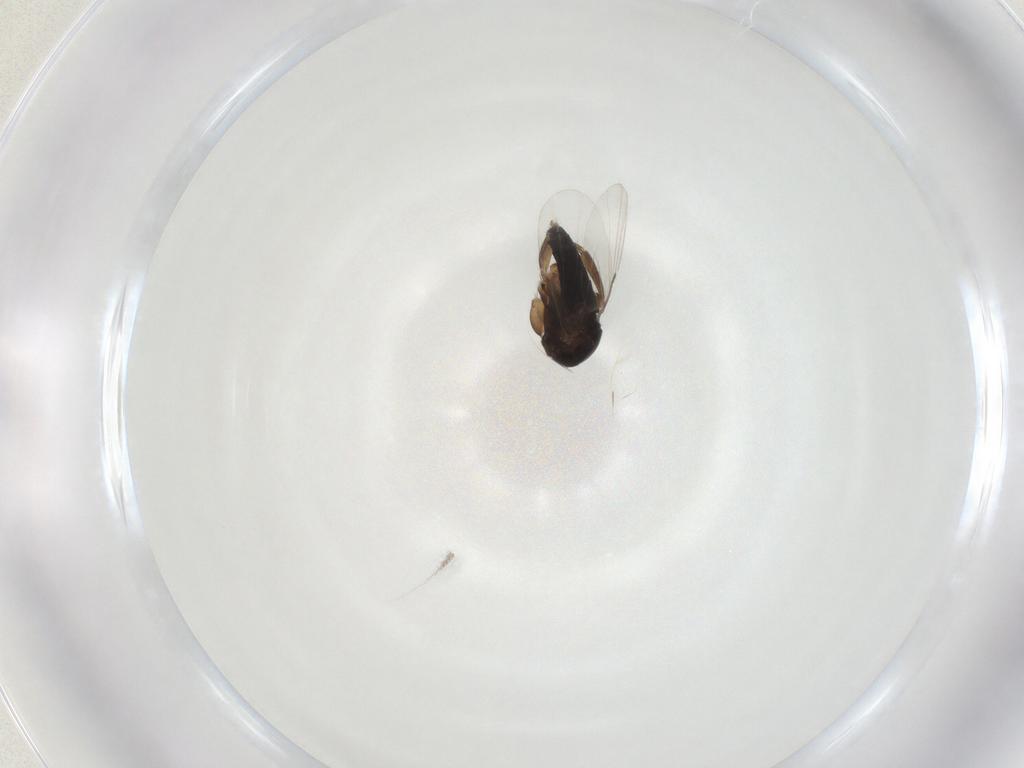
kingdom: Animalia
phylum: Arthropoda
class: Insecta
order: Diptera
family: Phoridae
